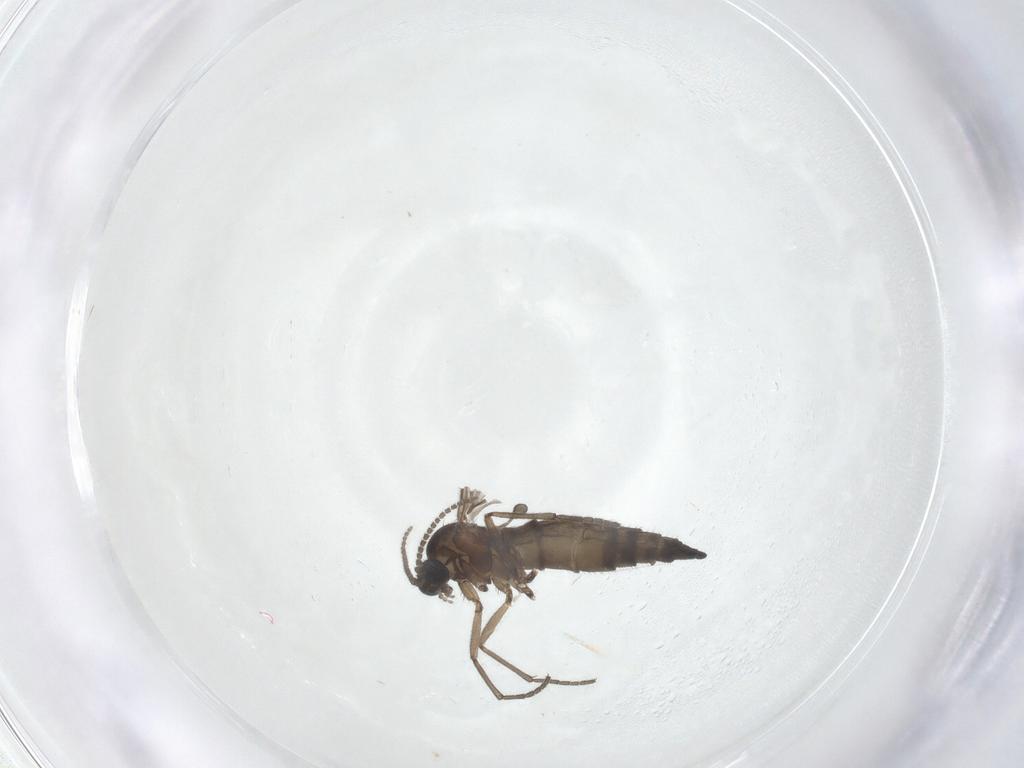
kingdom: Animalia
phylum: Arthropoda
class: Insecta
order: Diptera
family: Sciaridae
